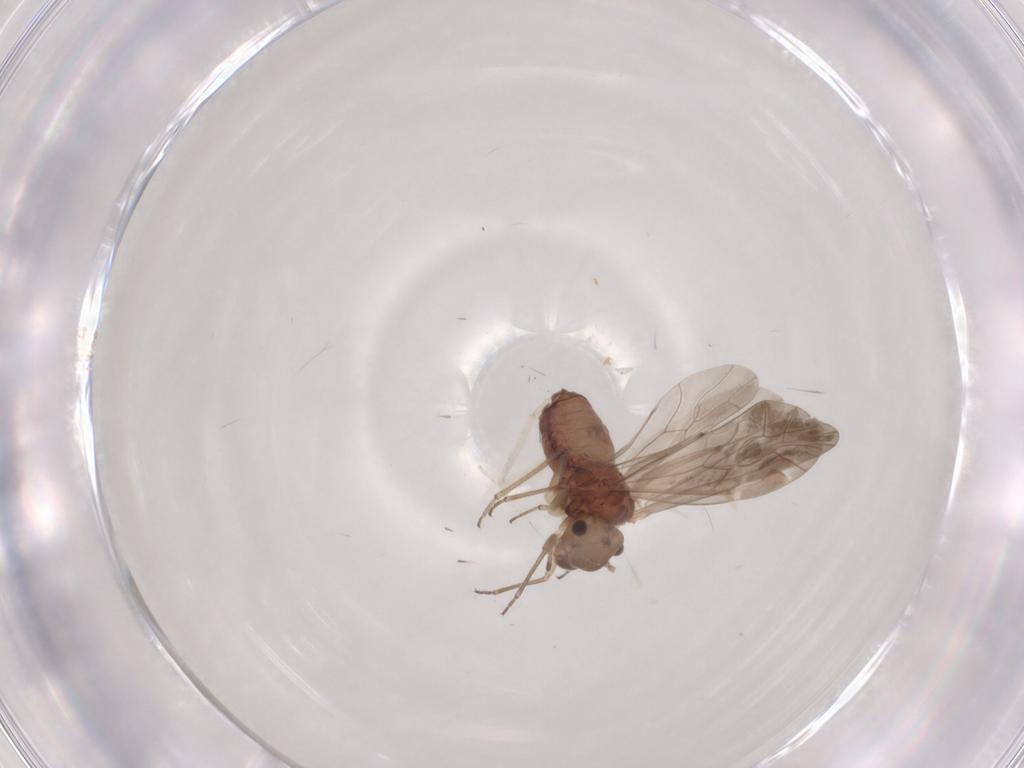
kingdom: Animalia
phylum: Arthropoda
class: Insecta
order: Psocodea
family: Peripsocidae
